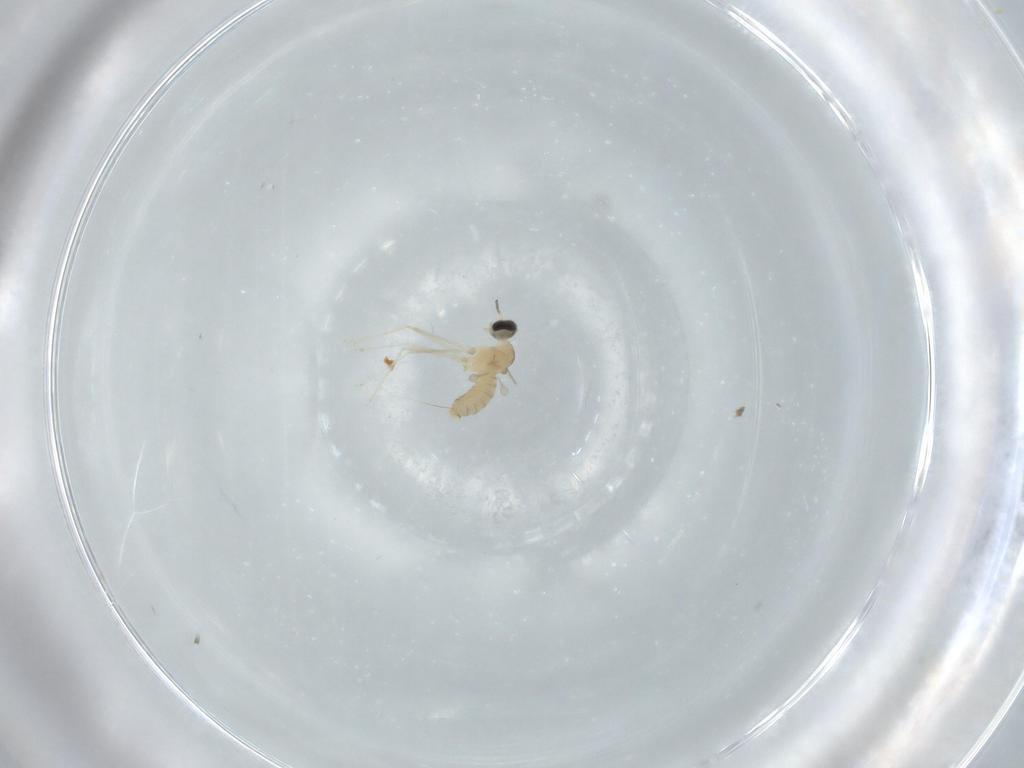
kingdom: Animalia
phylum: Arthropoda
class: Insecta
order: Diptera
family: Cecidomyiidae
